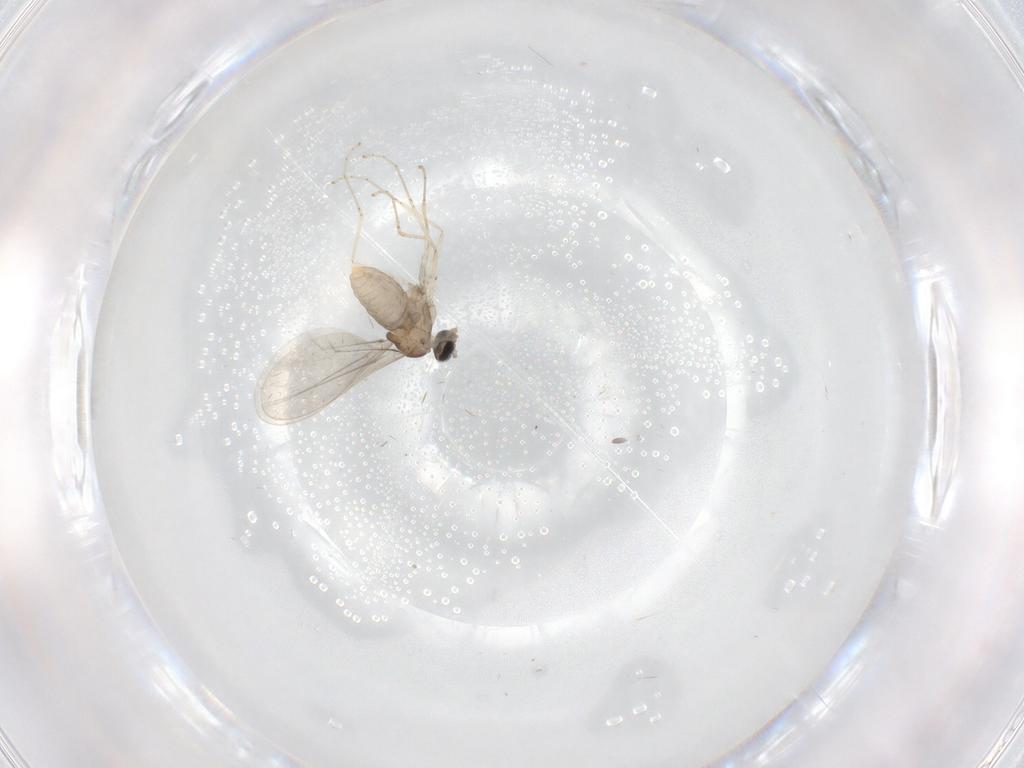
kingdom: Animalia
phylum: Arthropoda
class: Insecta
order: Diptera
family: Cecidomyiidae
